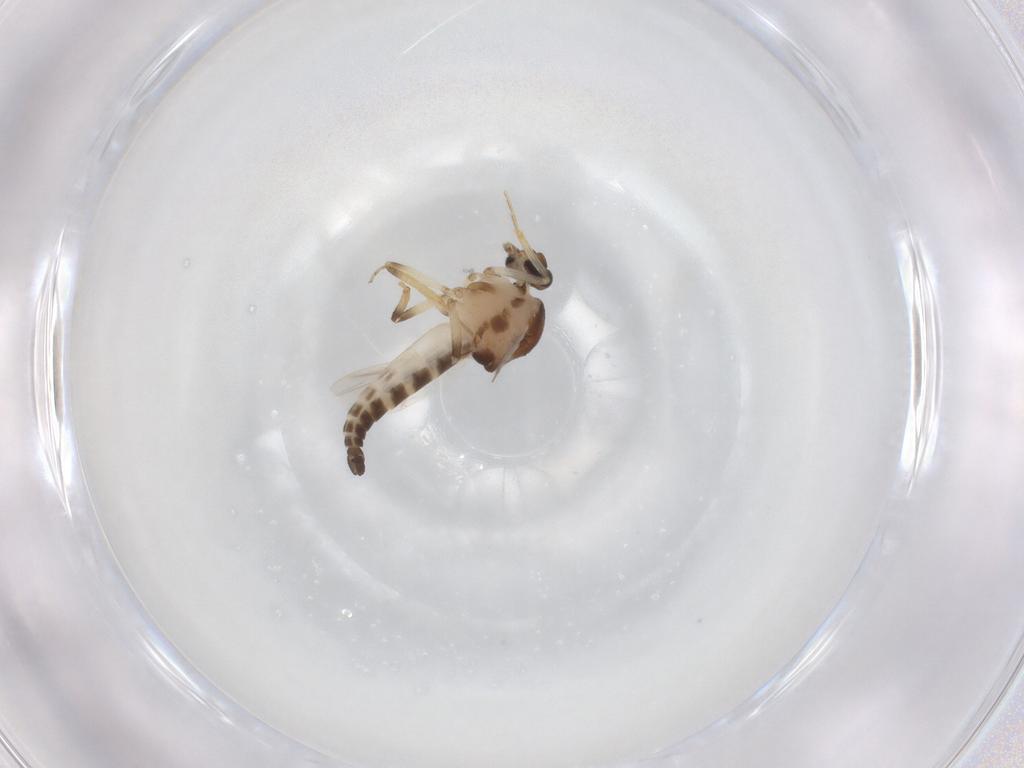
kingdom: Animalia
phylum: Arthropoda
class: Insecta
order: Diptera
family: Ceratopogonidae
